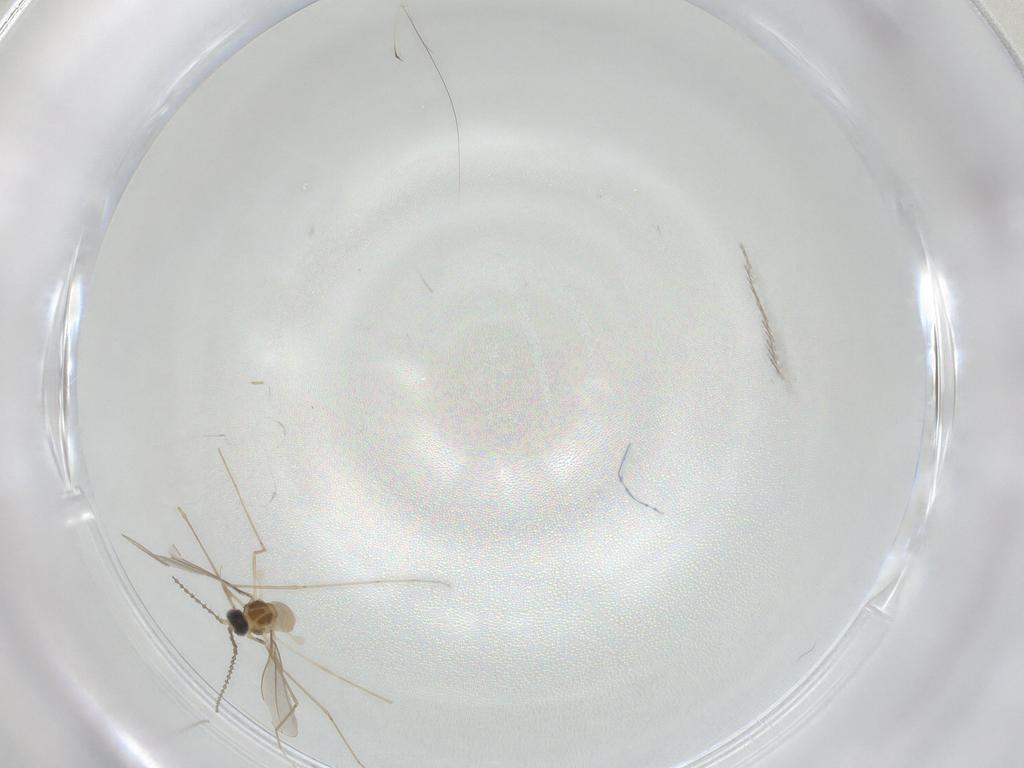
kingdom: Animalia
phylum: Arthropoda
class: Insecta
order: Diptera
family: Cecidomyiidae
